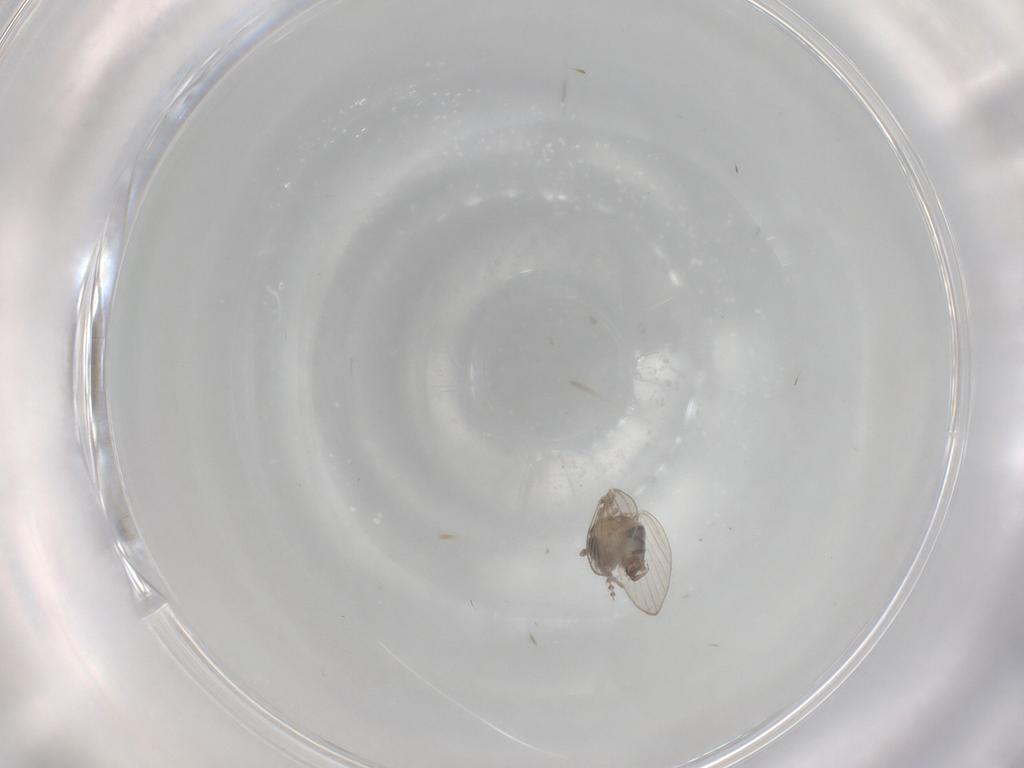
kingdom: Animalia
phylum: Arthropoda
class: Insecta
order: Diptera
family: Psychodidae
